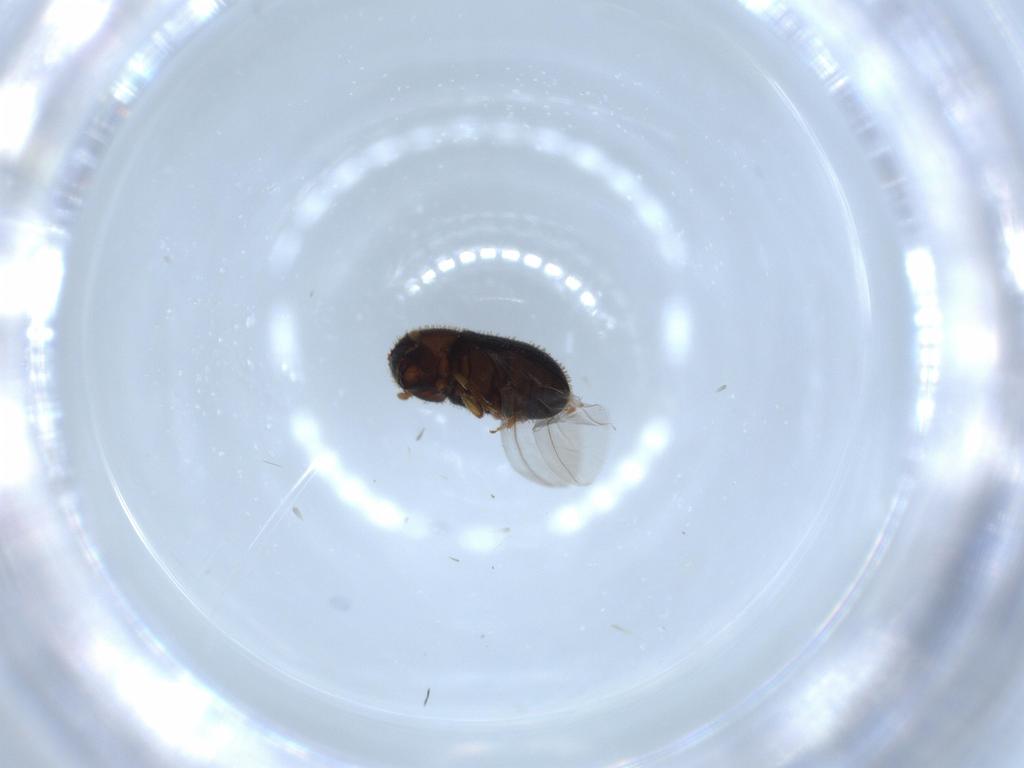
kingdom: Animalia
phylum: Arthropoda
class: Insecta
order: Coleoptera
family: Curculionidae
